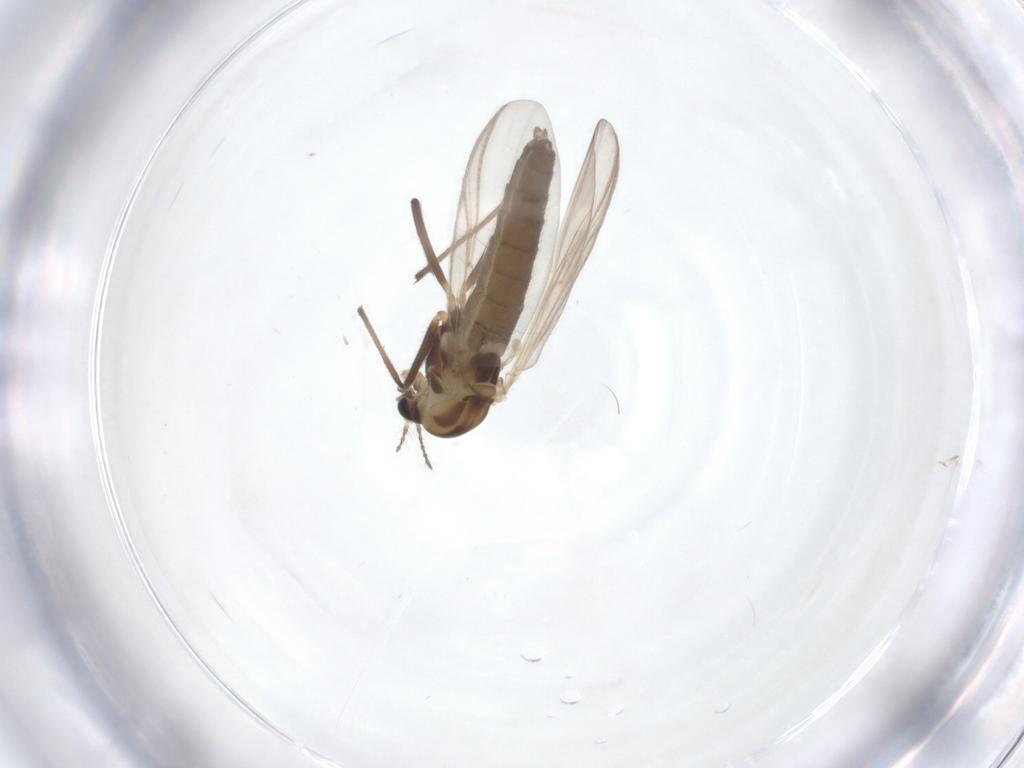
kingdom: Animalia
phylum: Arthropoda
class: Insecta
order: Diptera
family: Chironomidae
